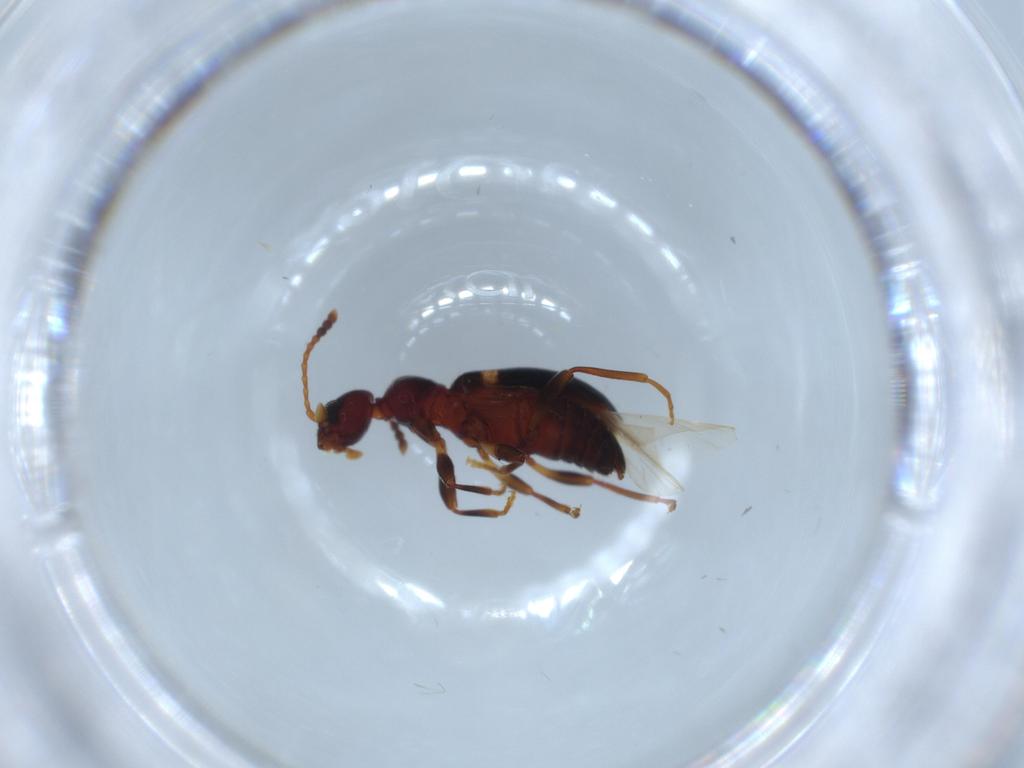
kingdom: Animalia
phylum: Arthropoda
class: Insecta
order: Coleoptera
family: Anthicidae
